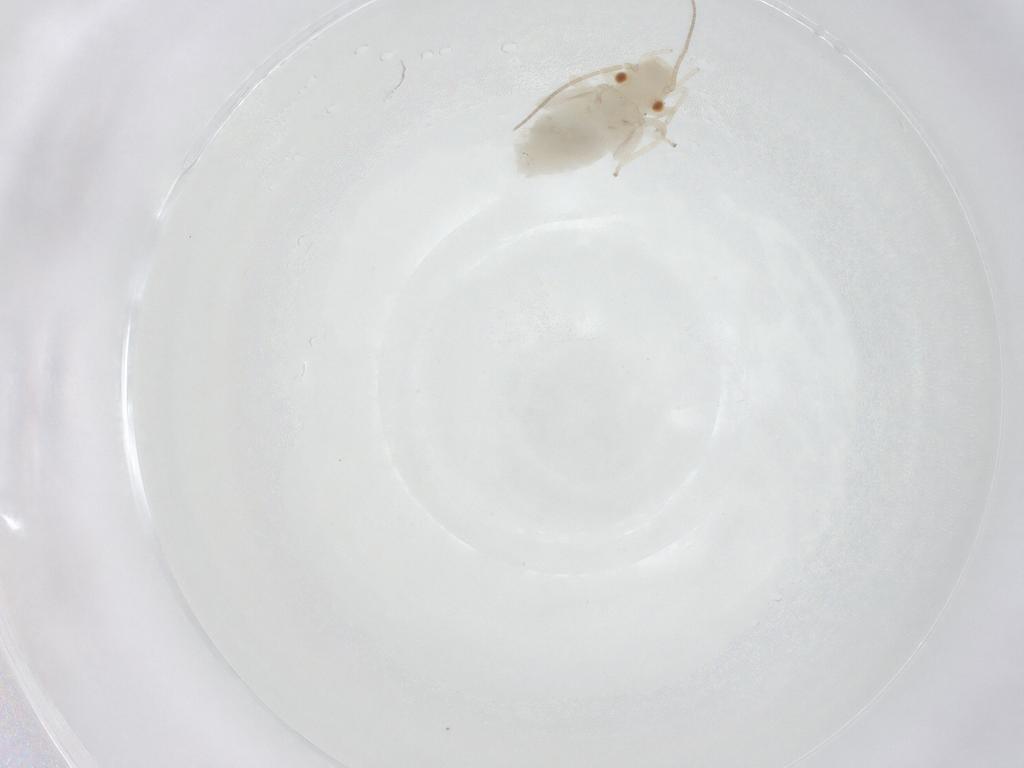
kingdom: Animalia
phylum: Arthropoda
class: Insecta
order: Psocodea
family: Caeciliusidae
